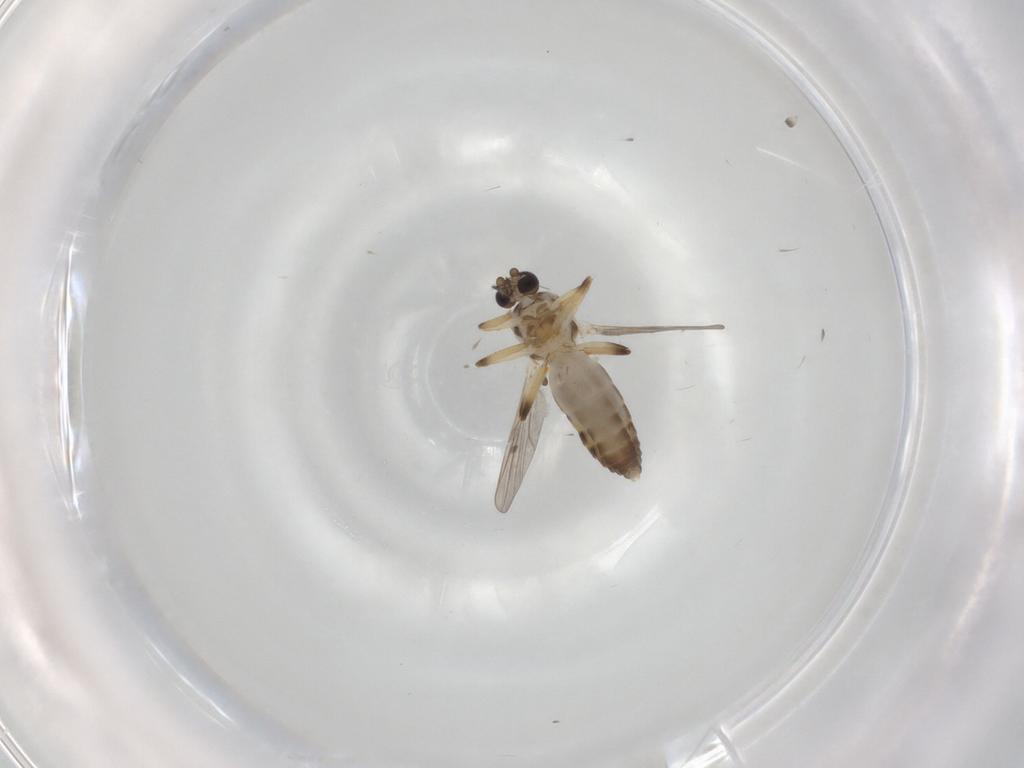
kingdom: Animalia
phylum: Arthropoda
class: Insecta
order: Diptera
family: Ceratopogonidae
